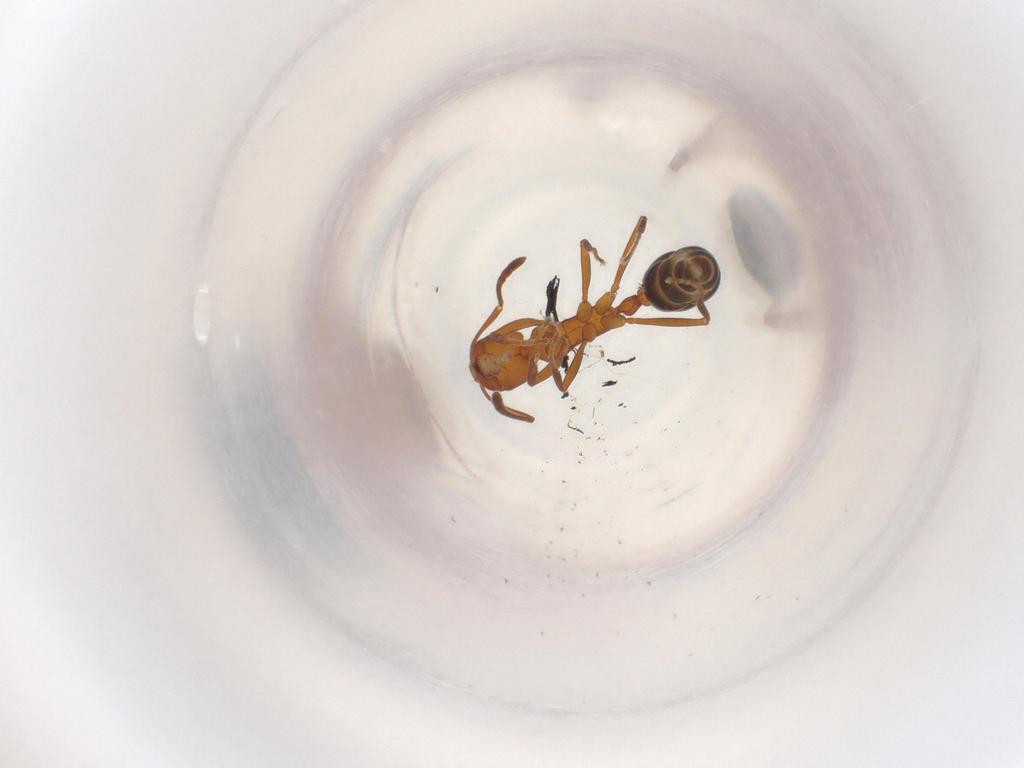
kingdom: Animalia
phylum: Arthropoda
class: Insecta
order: Hymenoptera
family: Formicidae
